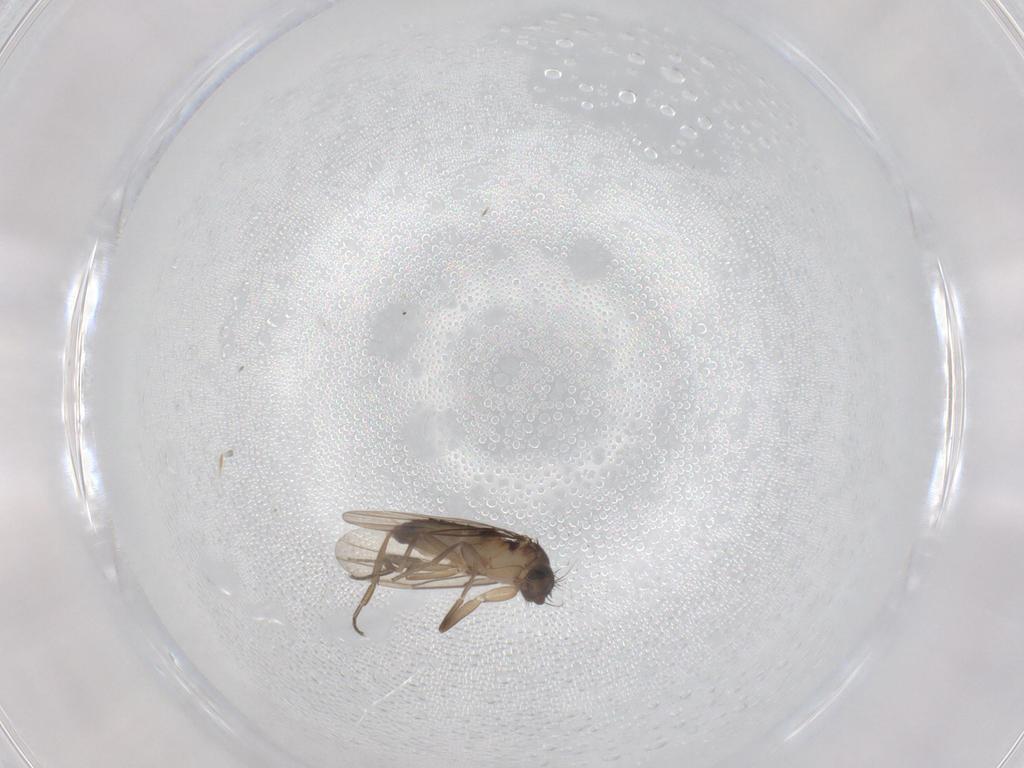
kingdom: Animalia
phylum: Arthropoda
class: Insecta
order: Diptera
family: Phoridae
